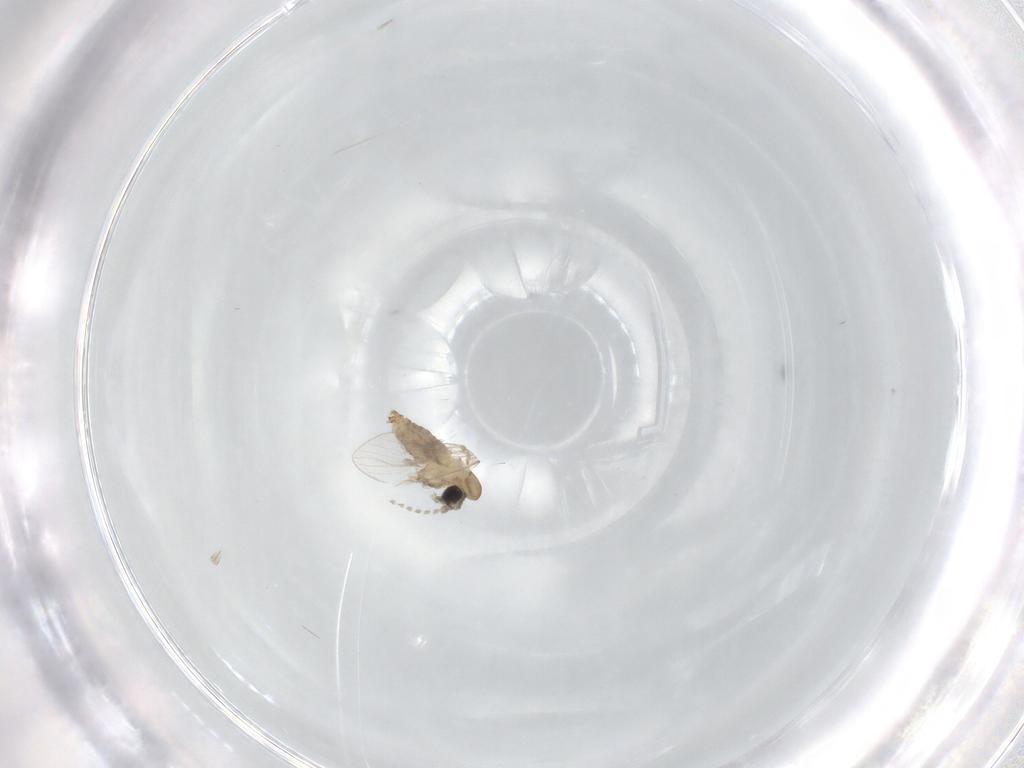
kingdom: Animalia
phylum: Arthropoda
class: Insecta
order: Diptera
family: Psychodidae
